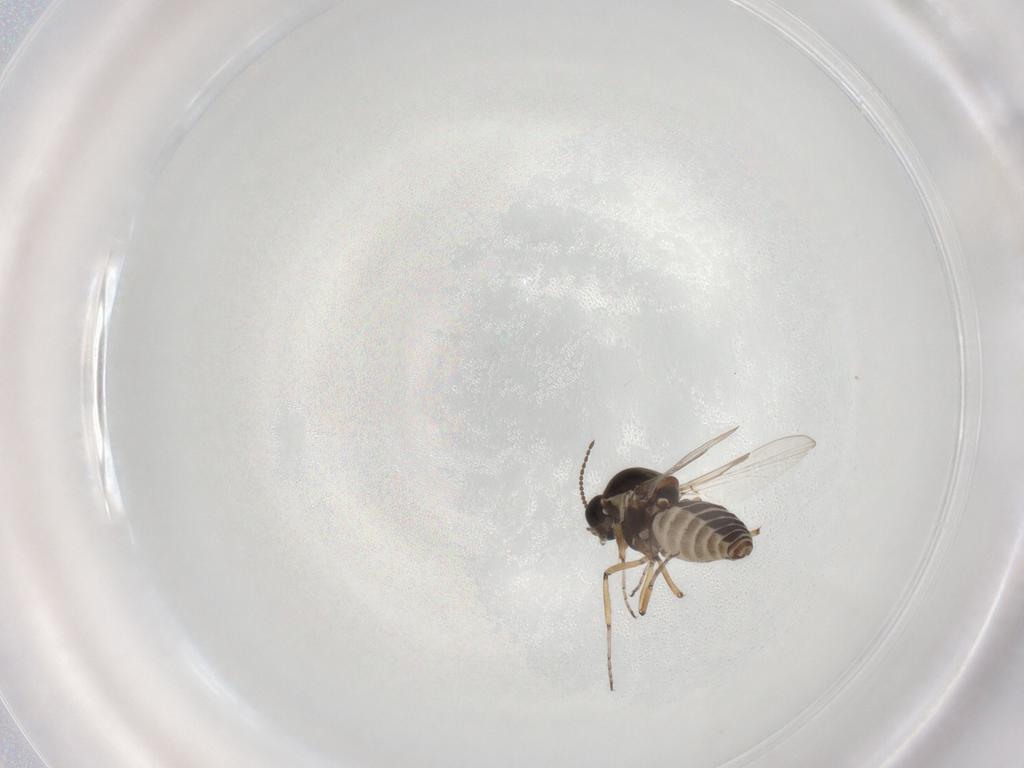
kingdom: Animalia
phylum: Arthropoda
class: Insecta
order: Diptera
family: Ceratopogonidae
